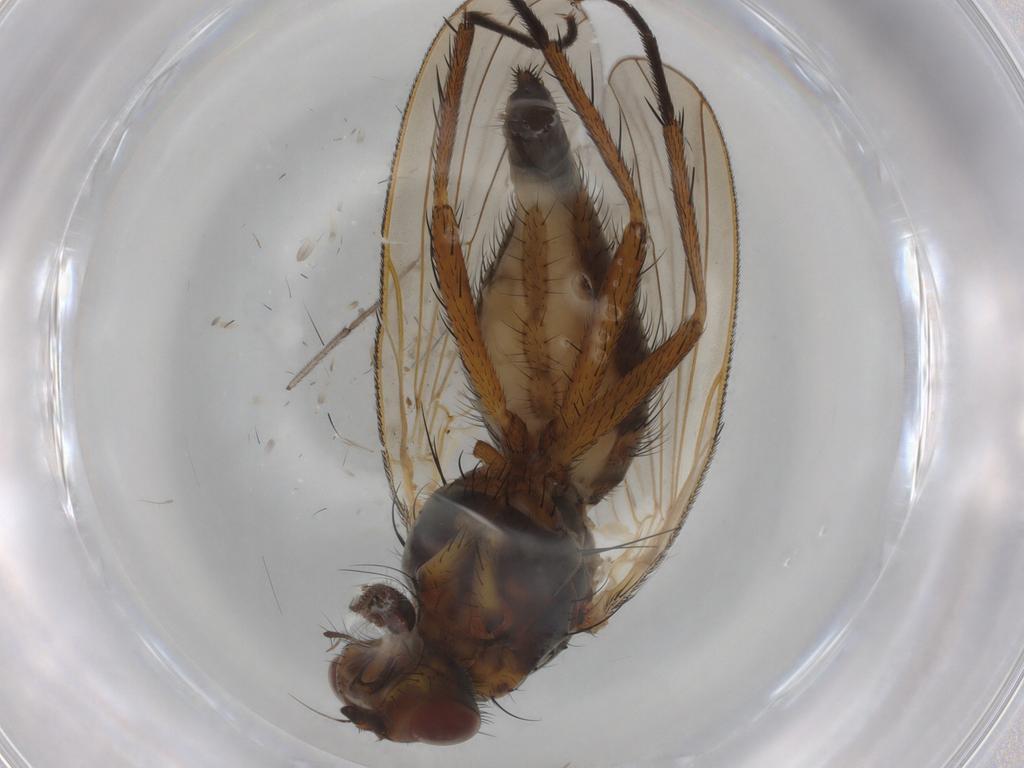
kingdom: Animalia
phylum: Arthropoda
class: Insecta
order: Diptera
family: Anthomyiidae
